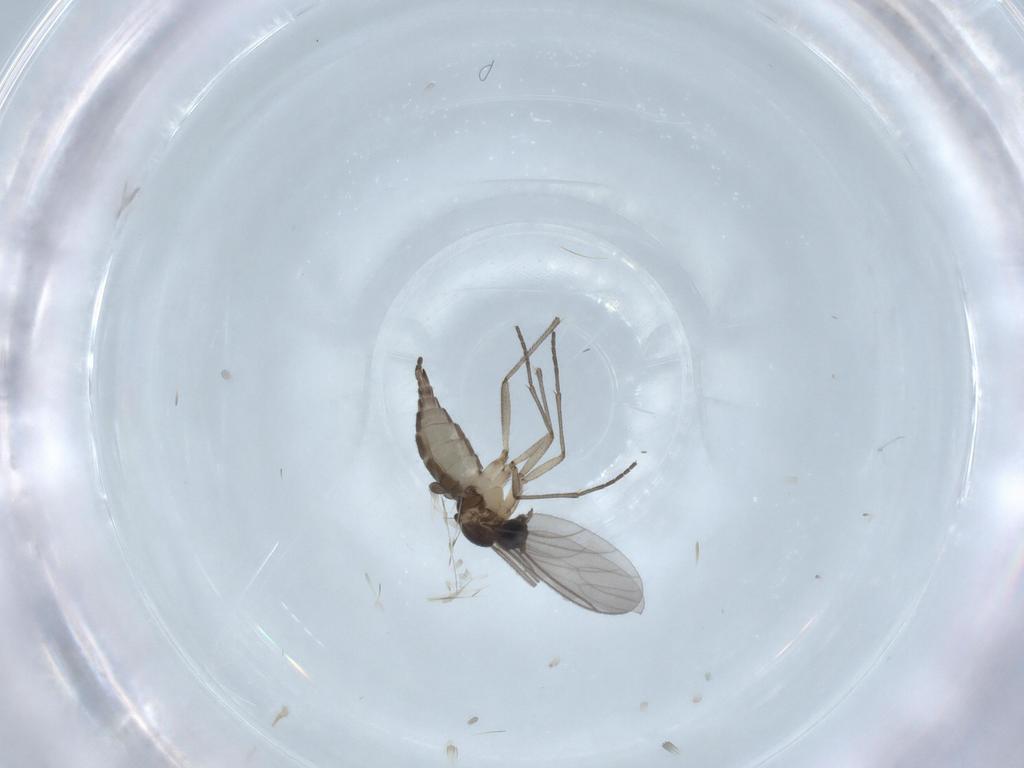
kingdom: Animalia
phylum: Arthropoda
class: Insecta
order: Diptera
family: Sciaridae
